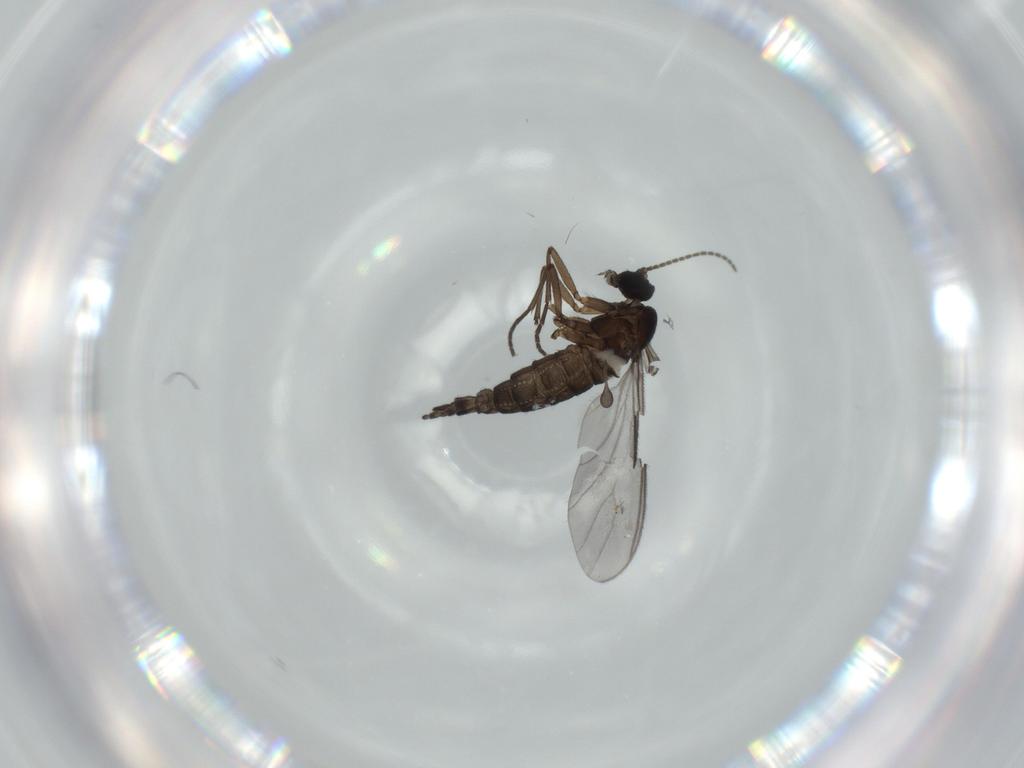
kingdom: Animalia
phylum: Arthropoda
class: Insecta
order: Diptera
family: Sciaridae
